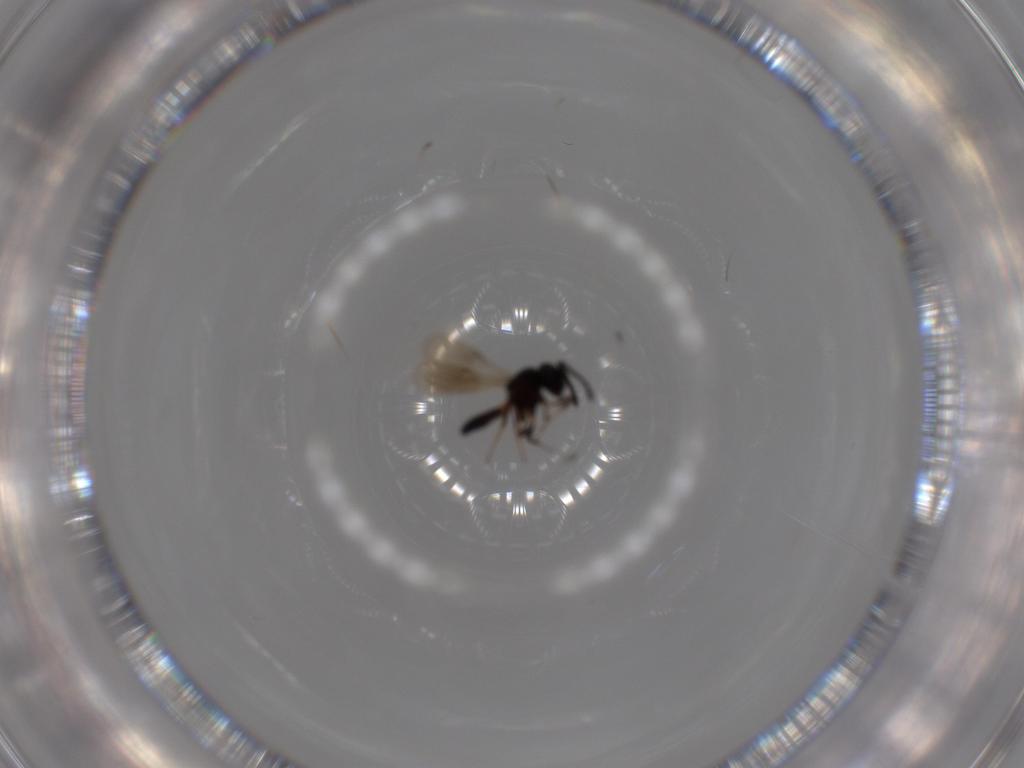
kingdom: Animalia
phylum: Arthropoda
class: Insecta
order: Hymenoptera
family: Scelionidae
